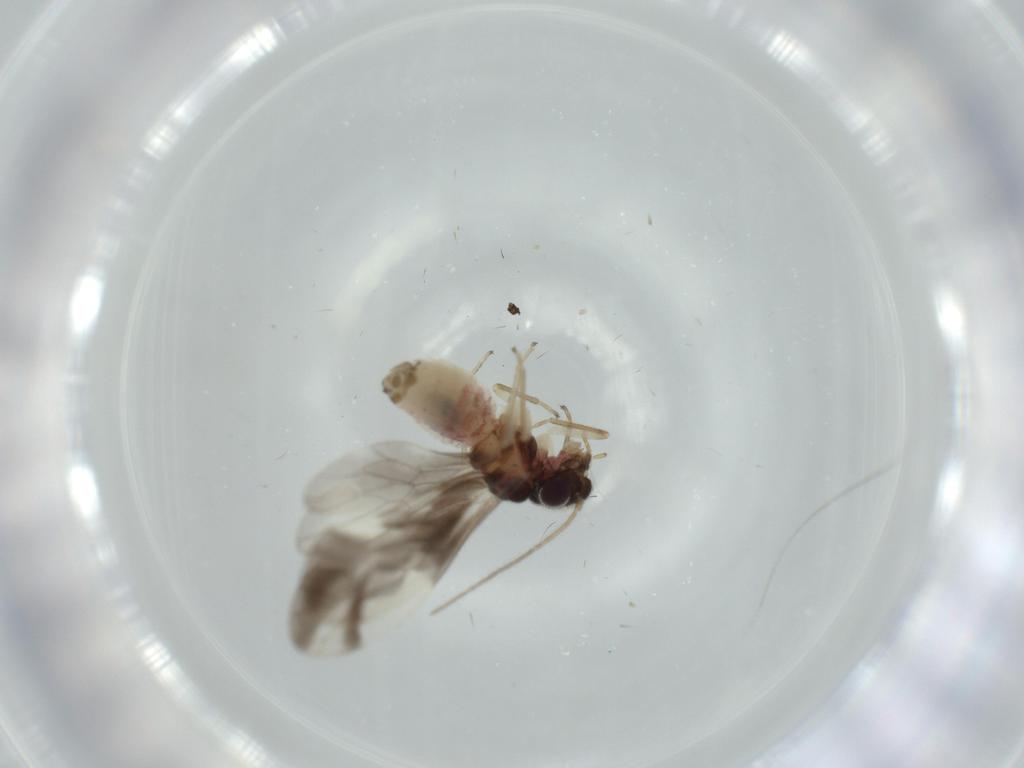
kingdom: Animalia
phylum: Arthropoda
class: Insecta
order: Psocodea
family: Caeciliusidae
